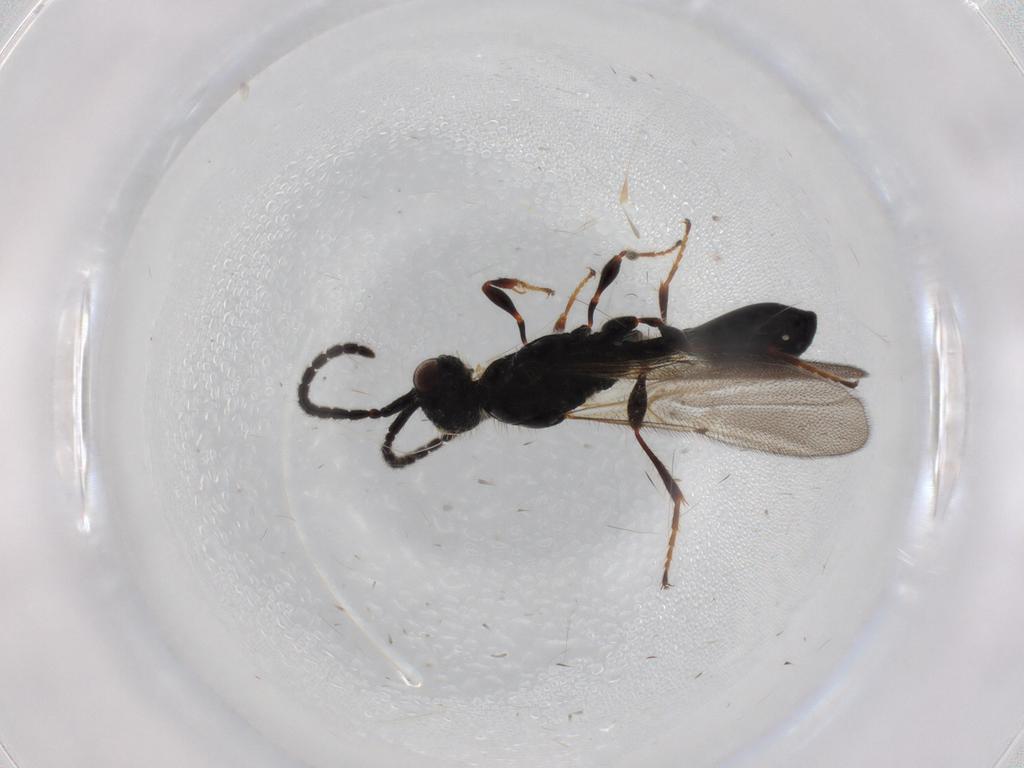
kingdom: Animalia
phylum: Arthropoda
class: Insecta
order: Hymenoptera
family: Diapriidae
